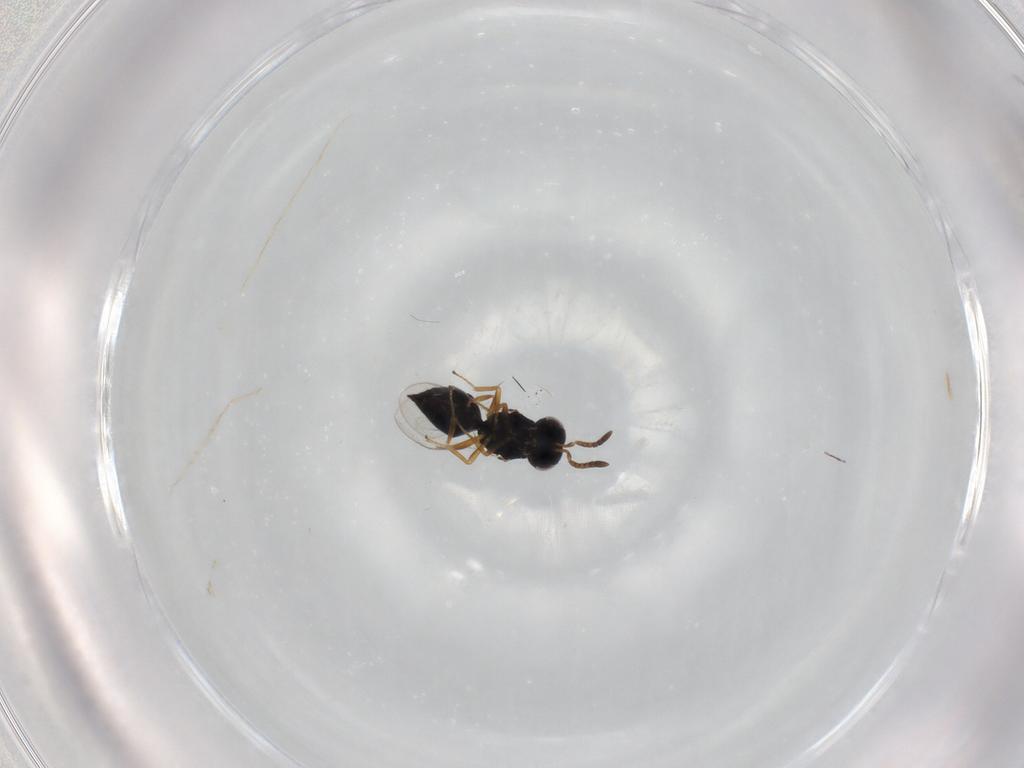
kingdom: Animalia
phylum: Arthropoda
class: Insecta
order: Hymenoptera
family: Pteromalidae
